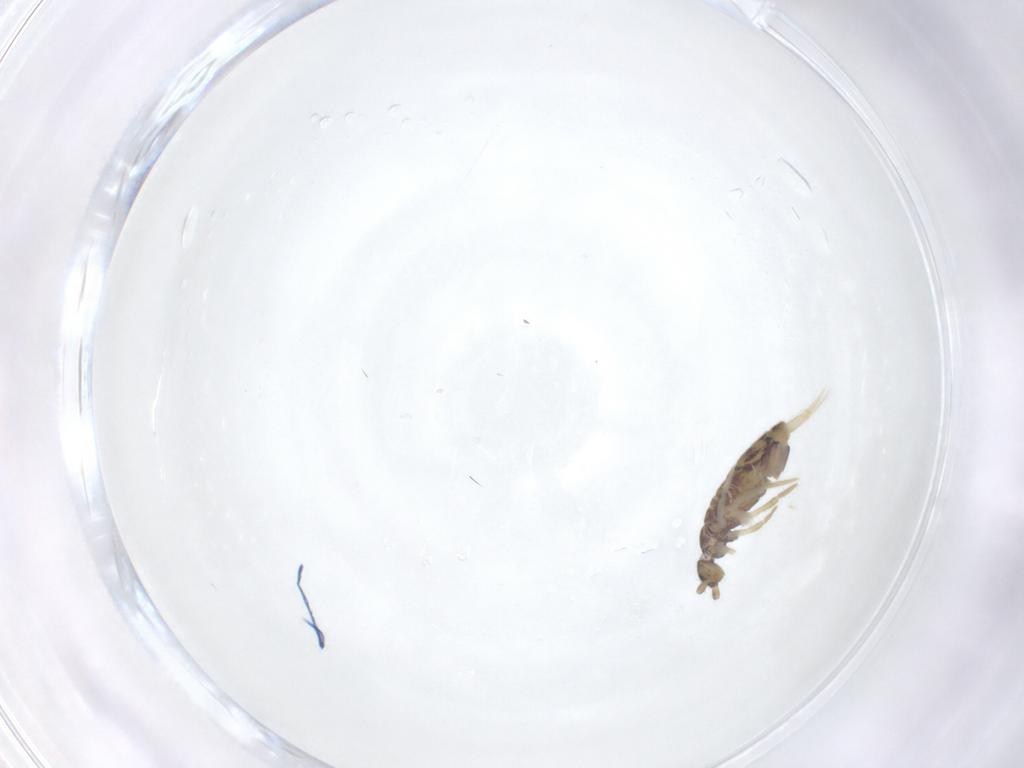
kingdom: Animalia
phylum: Arthropoda
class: Collembola
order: Entomobryomorpha
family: Entomobryidae
